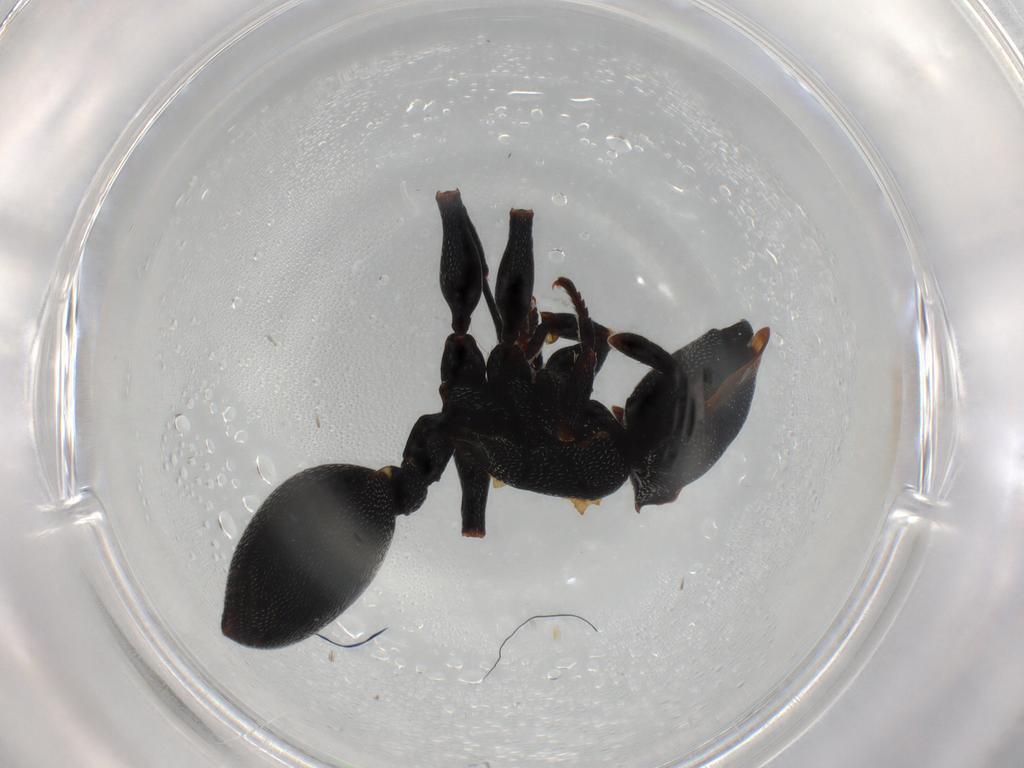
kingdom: Animalia
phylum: Arthropoda
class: Insecta
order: Hymenoptera
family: Formicidae
